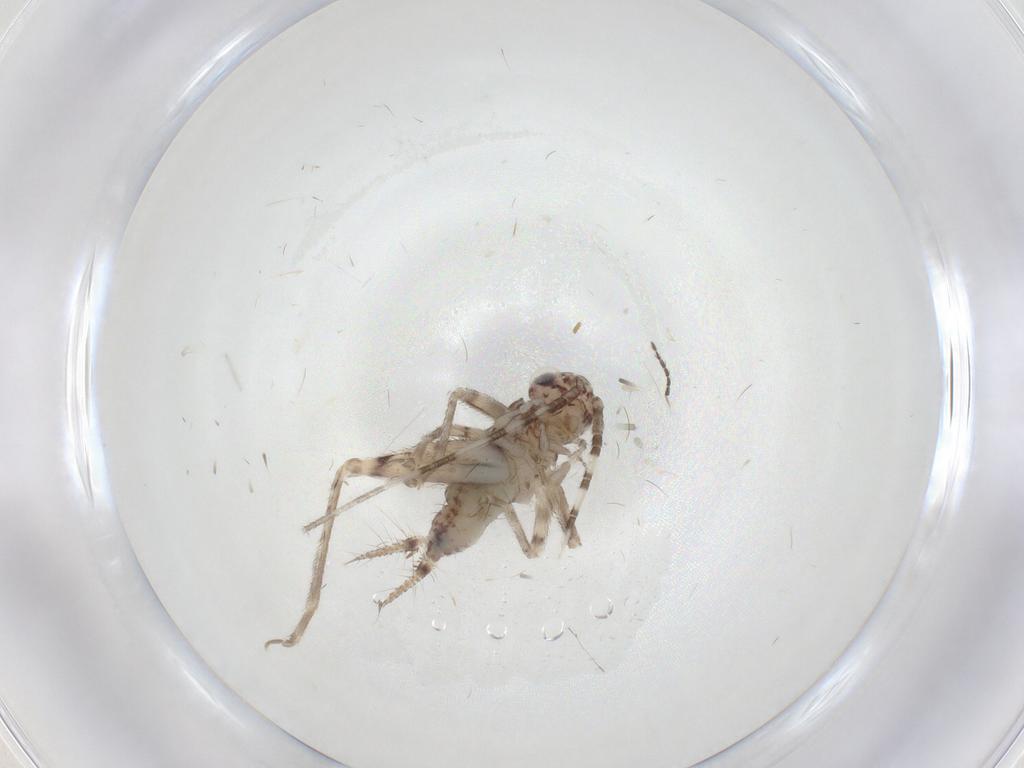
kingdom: Animalia
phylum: Arthropoda
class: Insecta
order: Orthoptera
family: Trigonidiidae
